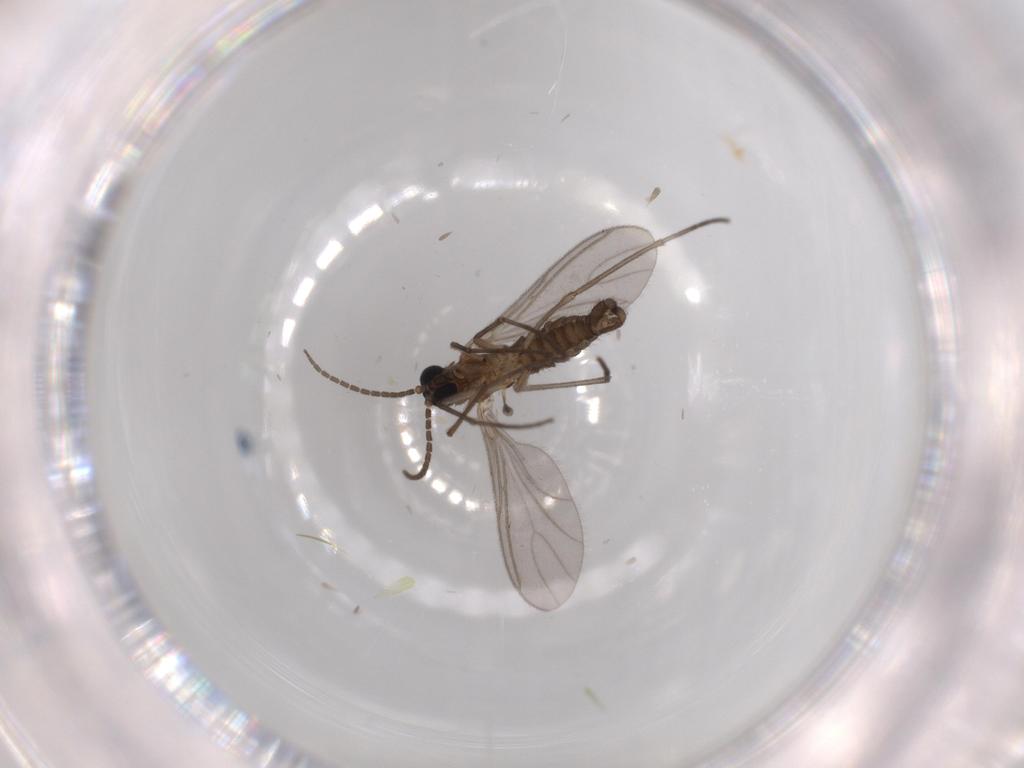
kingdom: Animalia
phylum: Arthropoda
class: Insecta
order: Diptera
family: Sciaridae
